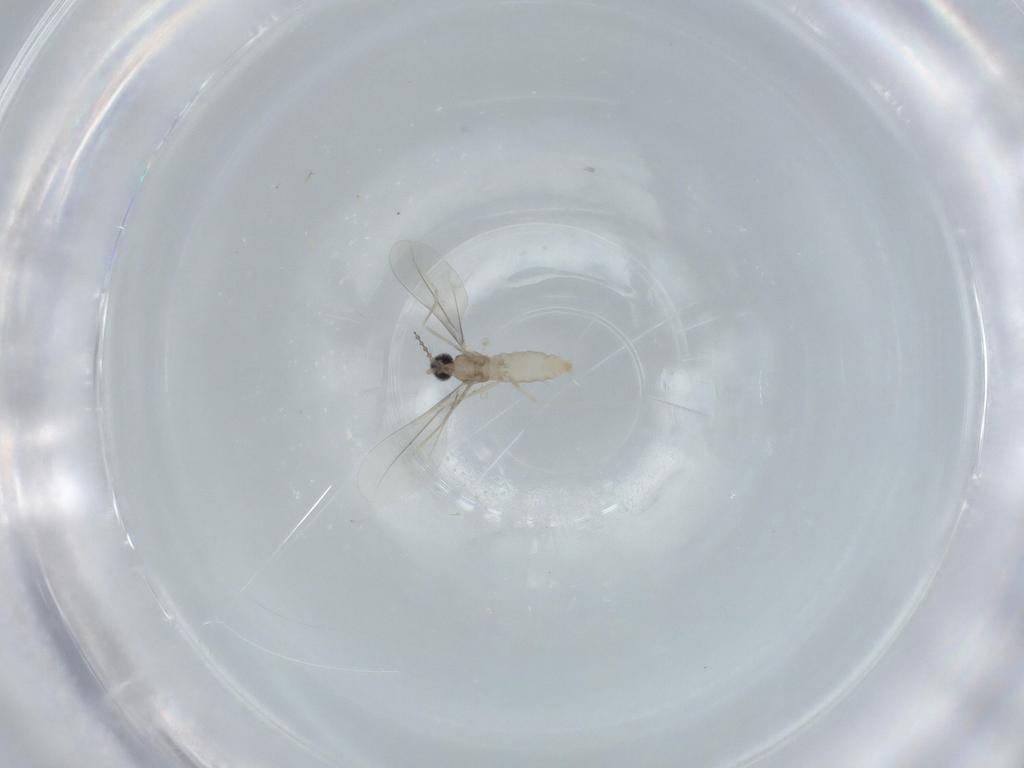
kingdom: Animalia
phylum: Arthropoda
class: Insecta
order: Diptera
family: Cecidomyiidae
